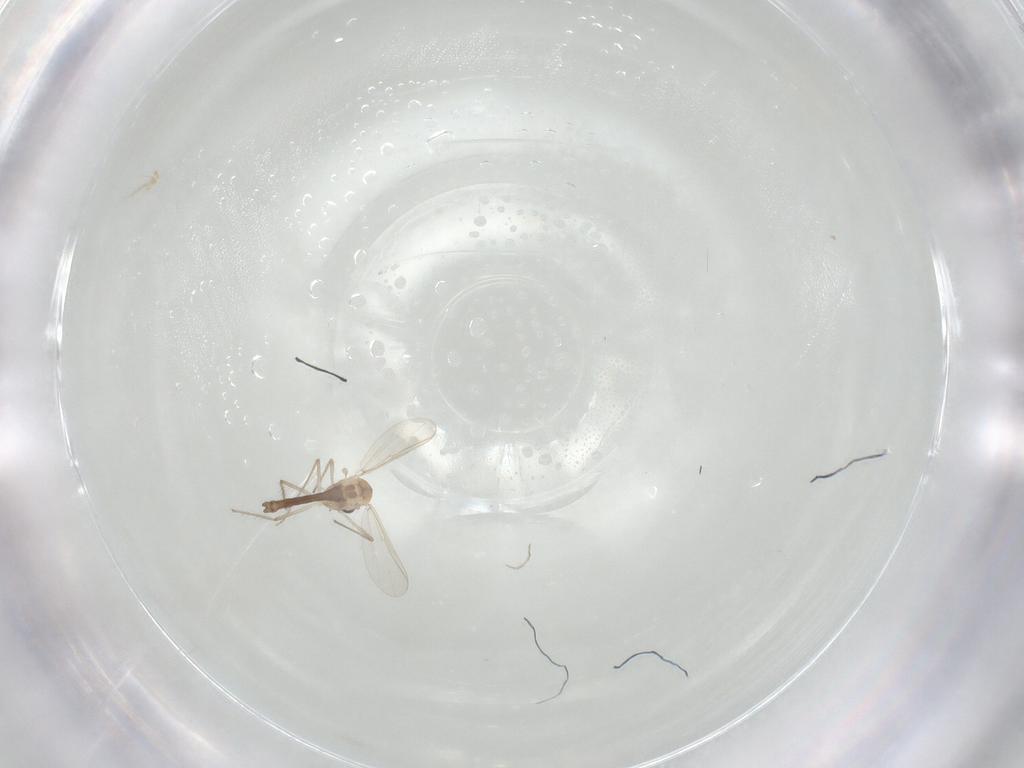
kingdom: Animalia
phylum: Arthropoda
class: Insecta
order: Diptera
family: Chironomidae
